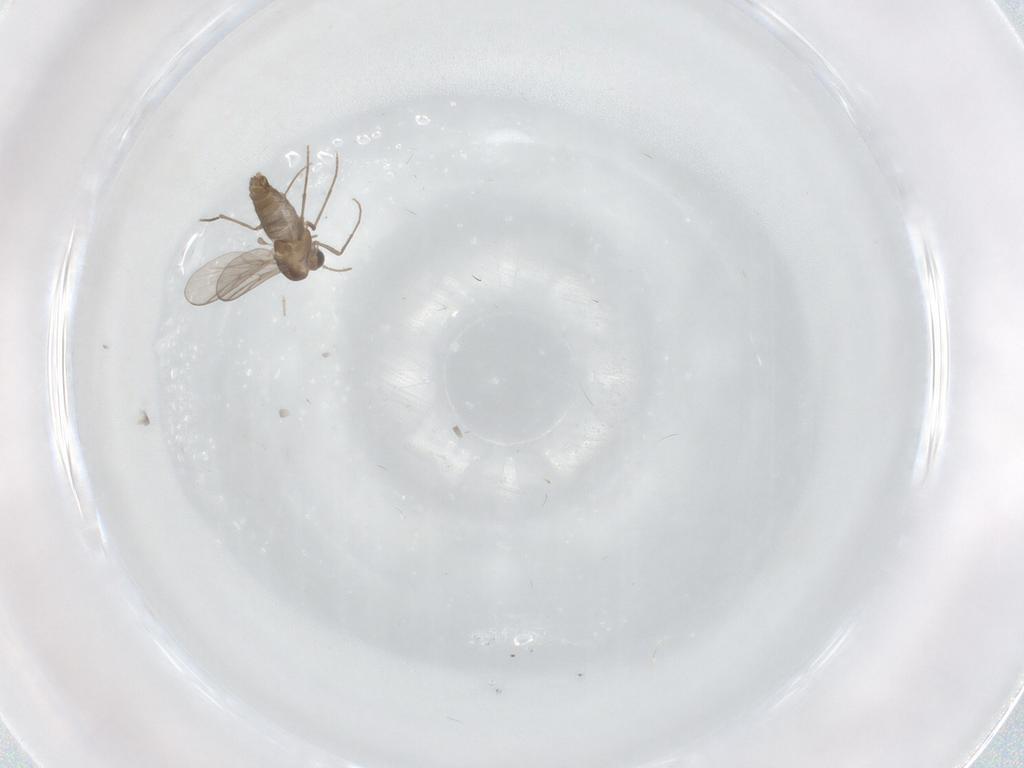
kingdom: Animalia
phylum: Arthropoda
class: Insecta
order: Diptera
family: Chironomidae
